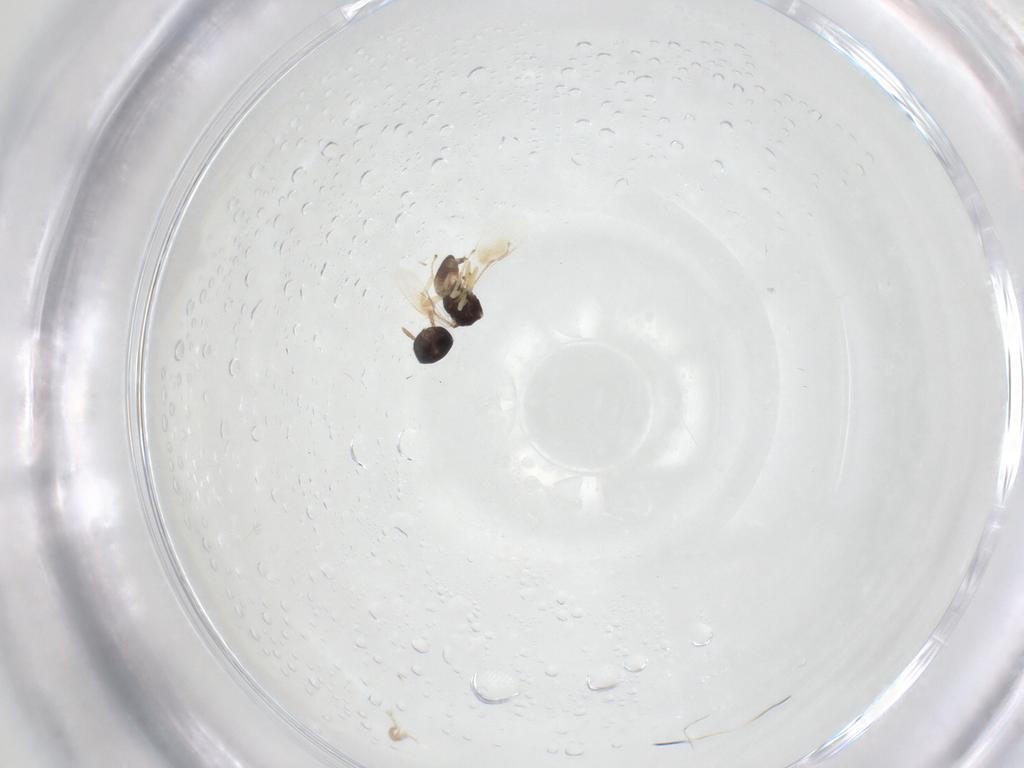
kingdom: Animalia
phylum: Arthropoda
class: Insecta
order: Hymenoptera
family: Pteromalidae
